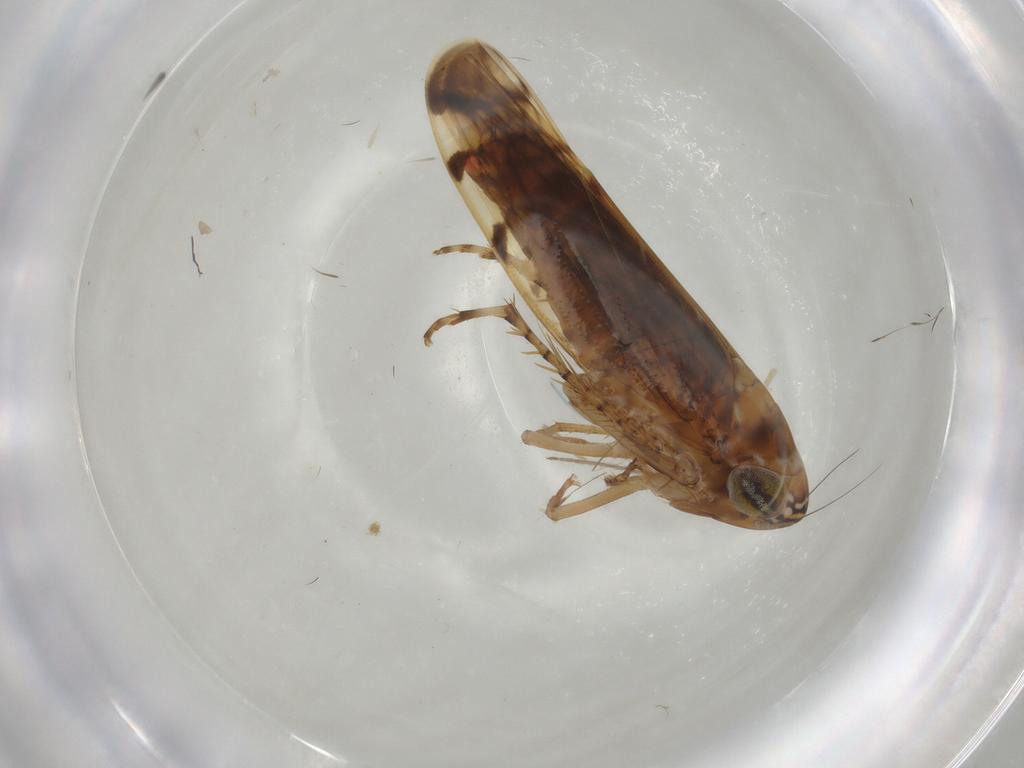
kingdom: Animalia
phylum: Arthropoda
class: Insecta
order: Hemiptera
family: Cicadellidae
